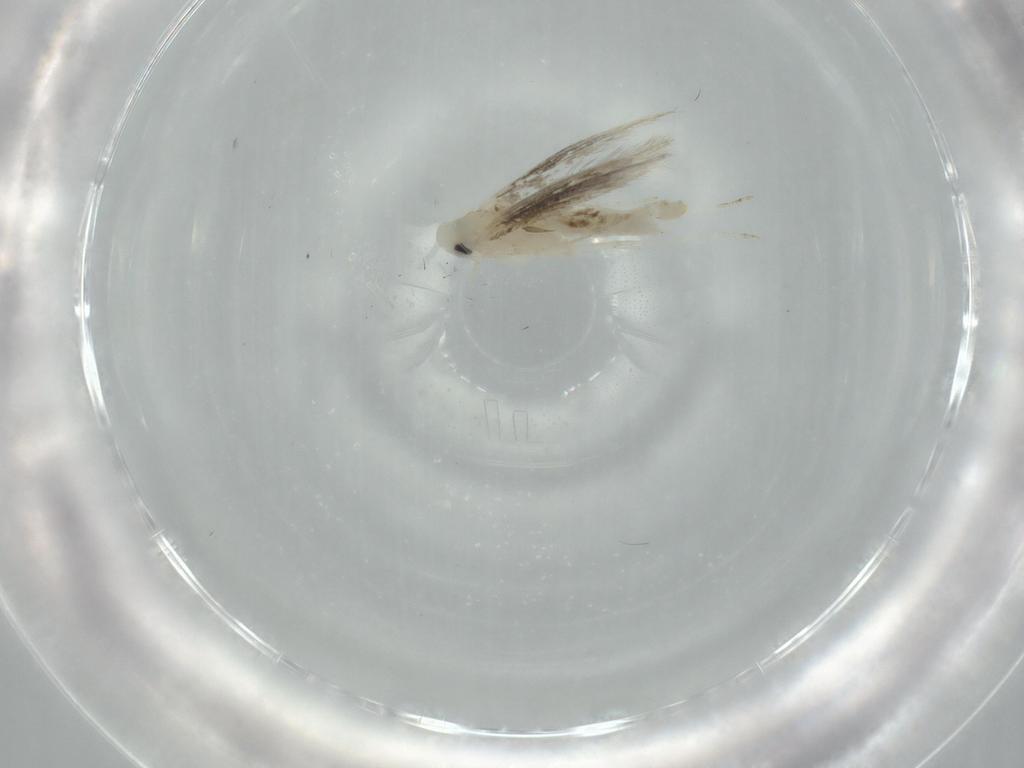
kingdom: Animalia
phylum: Arthropoda
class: Insecta
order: Lepidoptera
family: Nepticulidae
